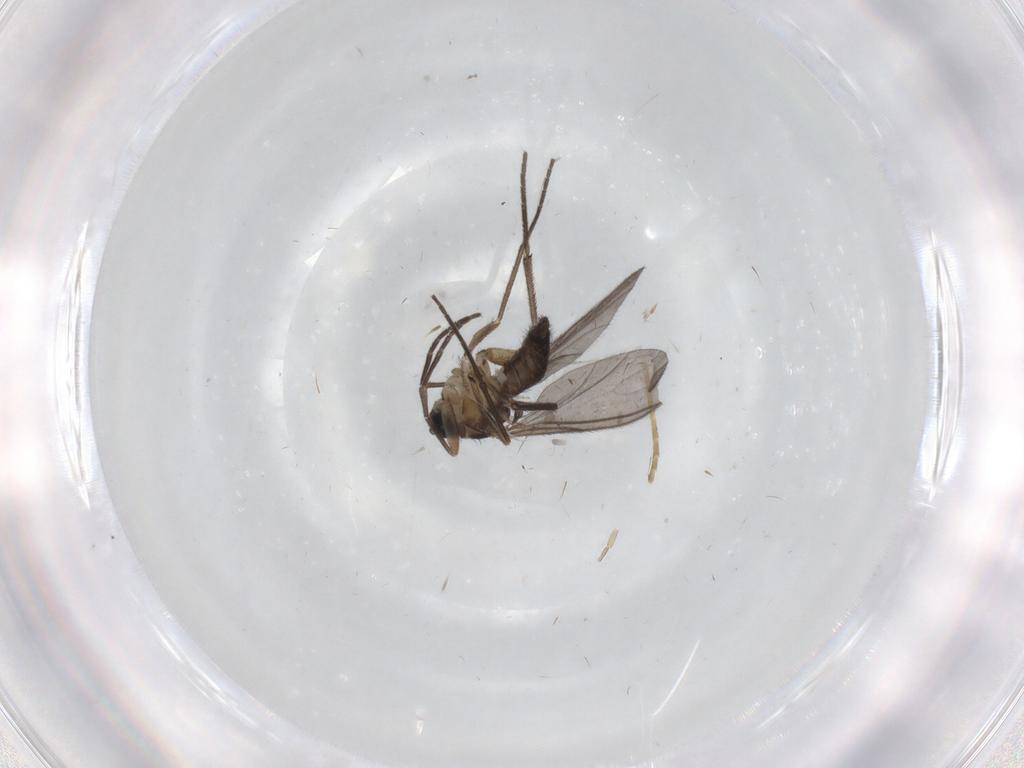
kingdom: Animalia
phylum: Arthropoda
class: Insecta
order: Diptera
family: Sciaridae
